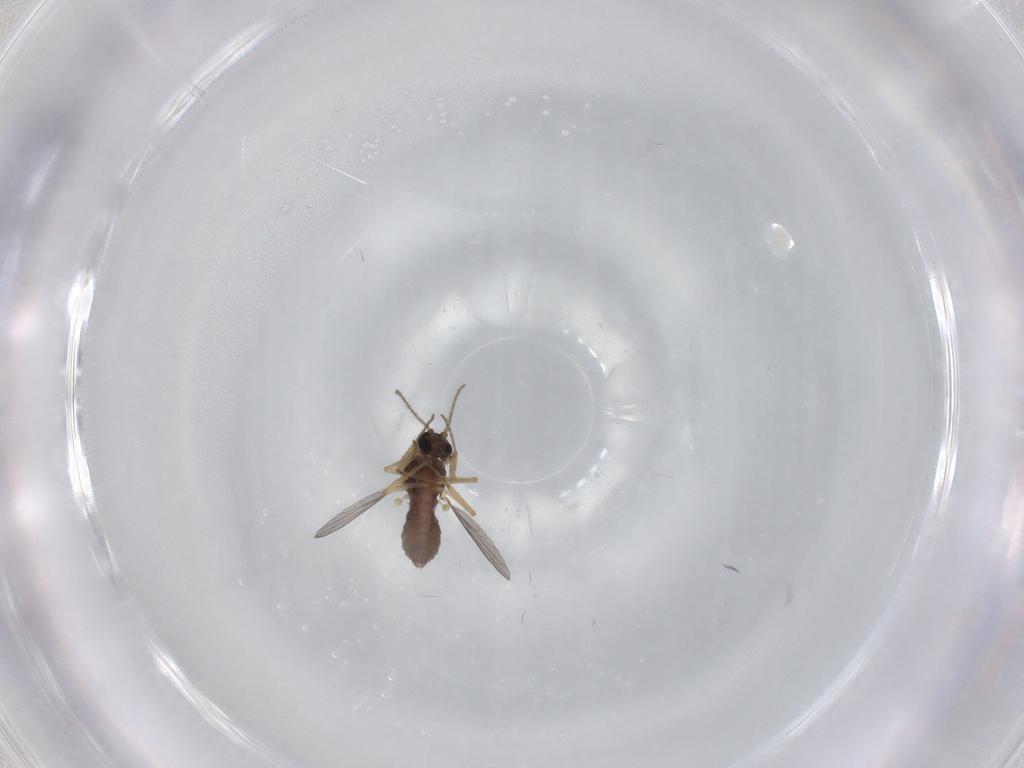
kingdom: Animalia
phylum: Arthropoda
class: Insecta
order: Diptera
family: Ceratopogonidae
